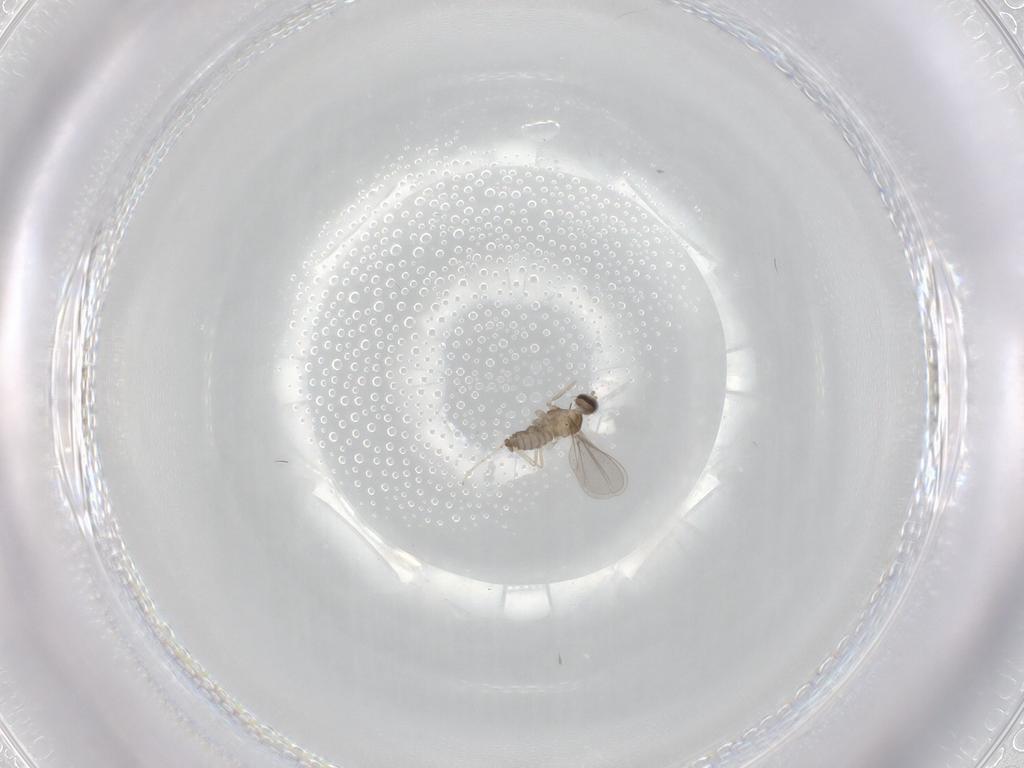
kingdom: Animalia
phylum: Arthropoda
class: Insecta
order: Diptera
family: Cecidomyiidae
